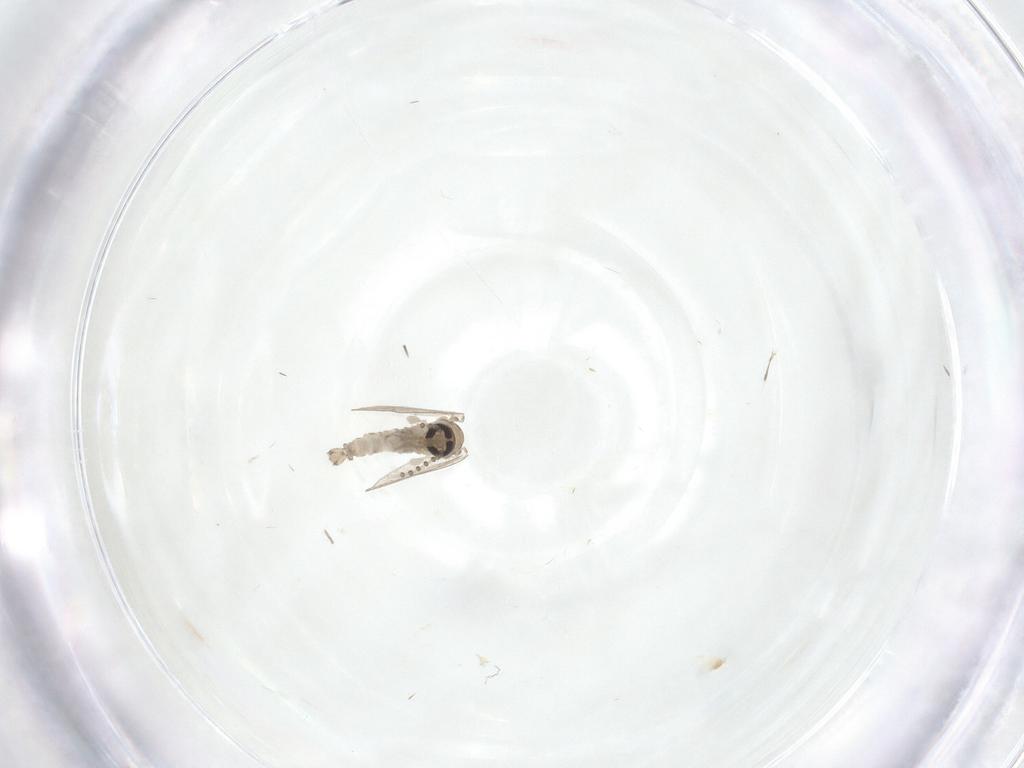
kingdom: Animalia
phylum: Arthropoda
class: Insecta
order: Diptera
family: Psychodidae
